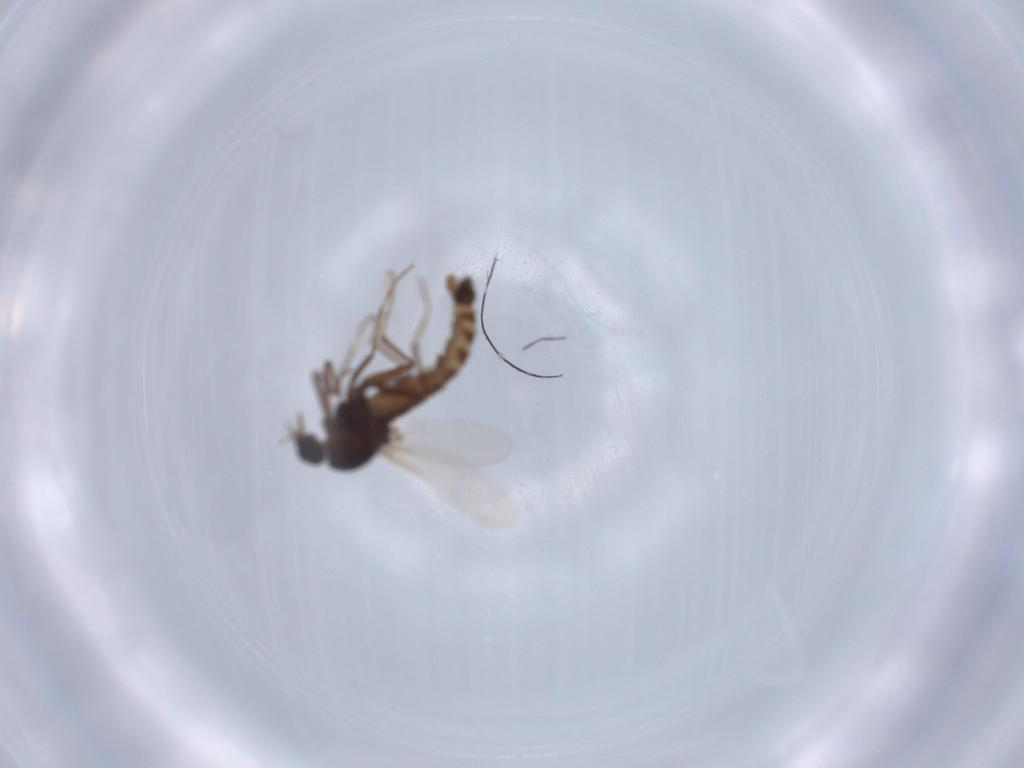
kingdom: Animalia
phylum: Arthropoda
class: Insecta
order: Diptera
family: Ceratopogonidae
